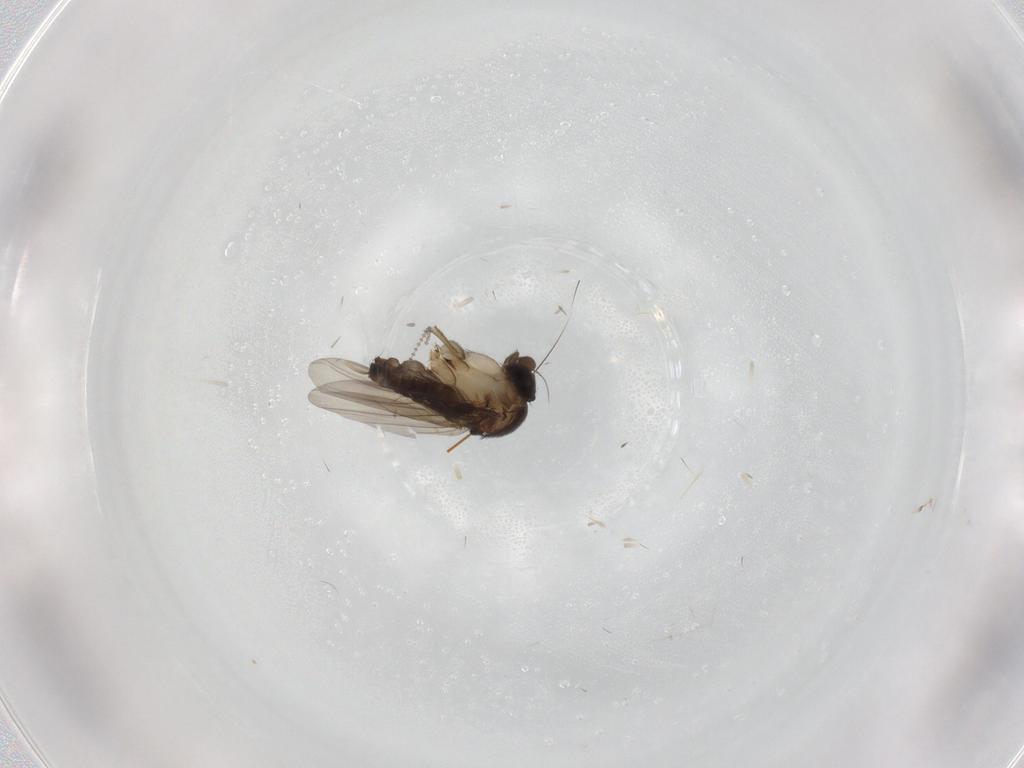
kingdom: Animalia
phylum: Arthropoda
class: Insecta
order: Diptera
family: Cecidomyiidae
